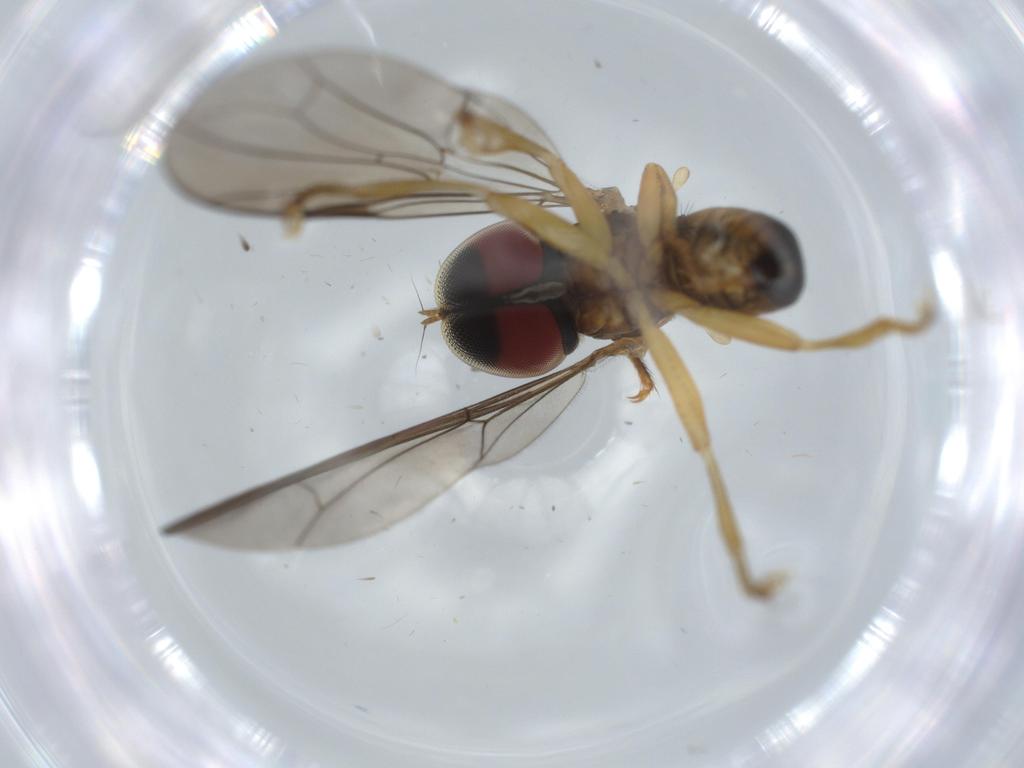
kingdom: Animalia
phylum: Arthropoda
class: Insecta
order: Diptera
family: Pipunculidae
